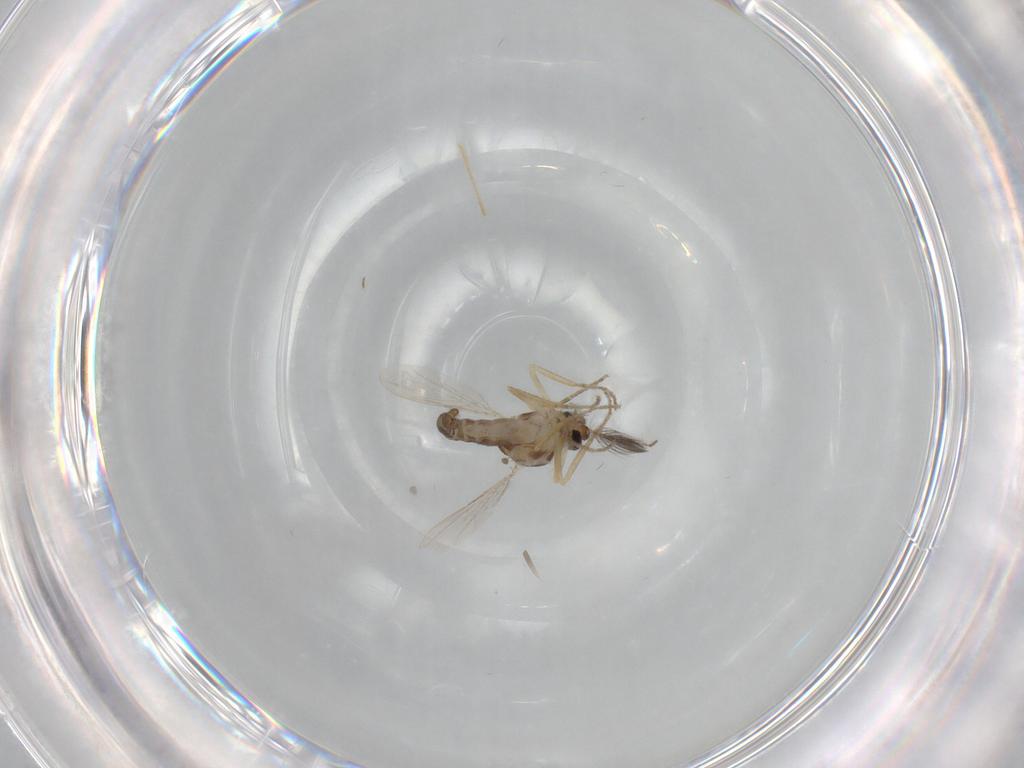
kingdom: Animalia
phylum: Arthropoda
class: Insecta
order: Diptera
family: Ceratopogonidae
